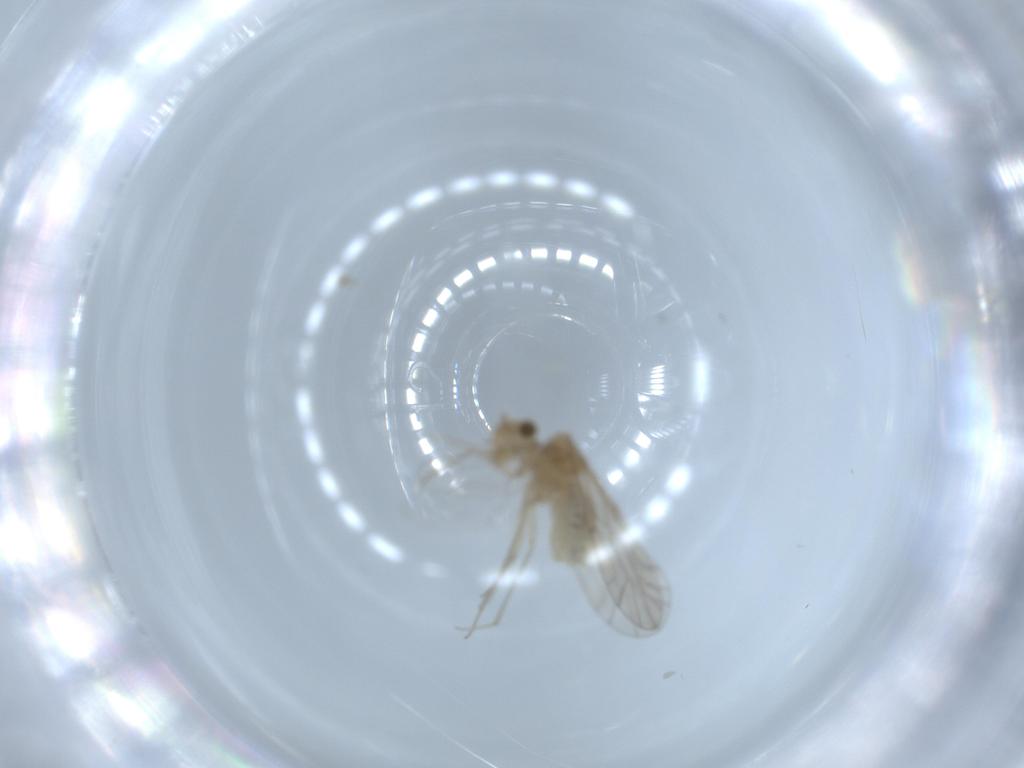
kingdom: Animalia
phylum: Arthropoda
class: Insecta
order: Psocodea
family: Lachesillidae
